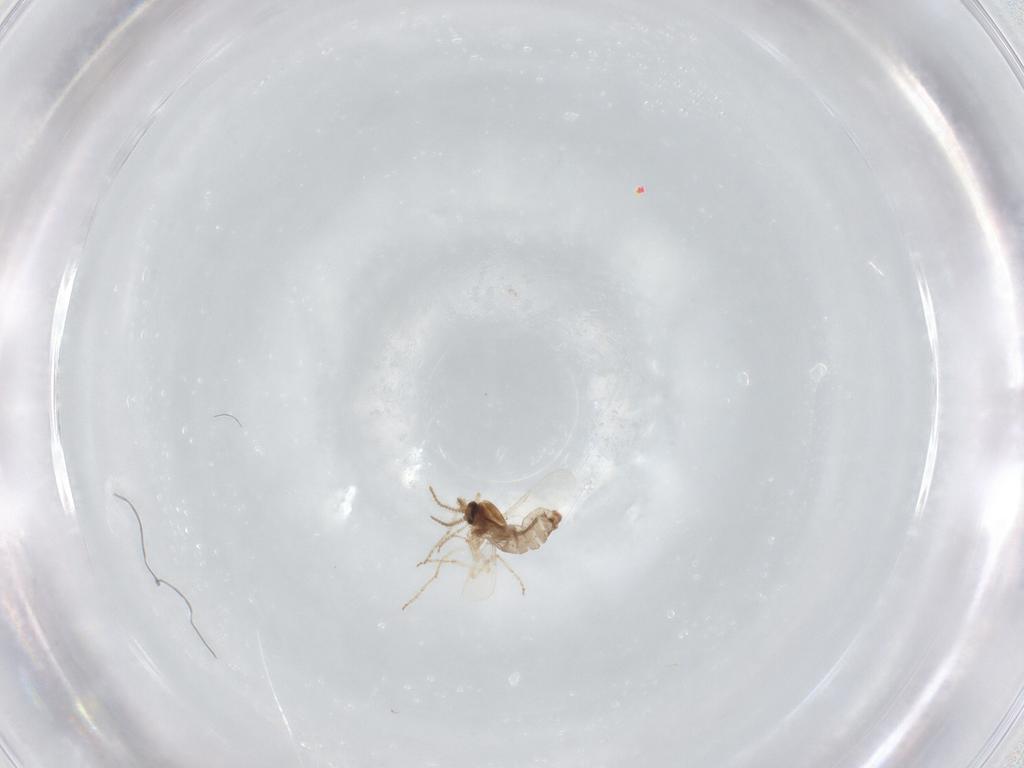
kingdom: Animalia
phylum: Arthropoda
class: Insecta
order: Diptera
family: Ceratopogonidae
